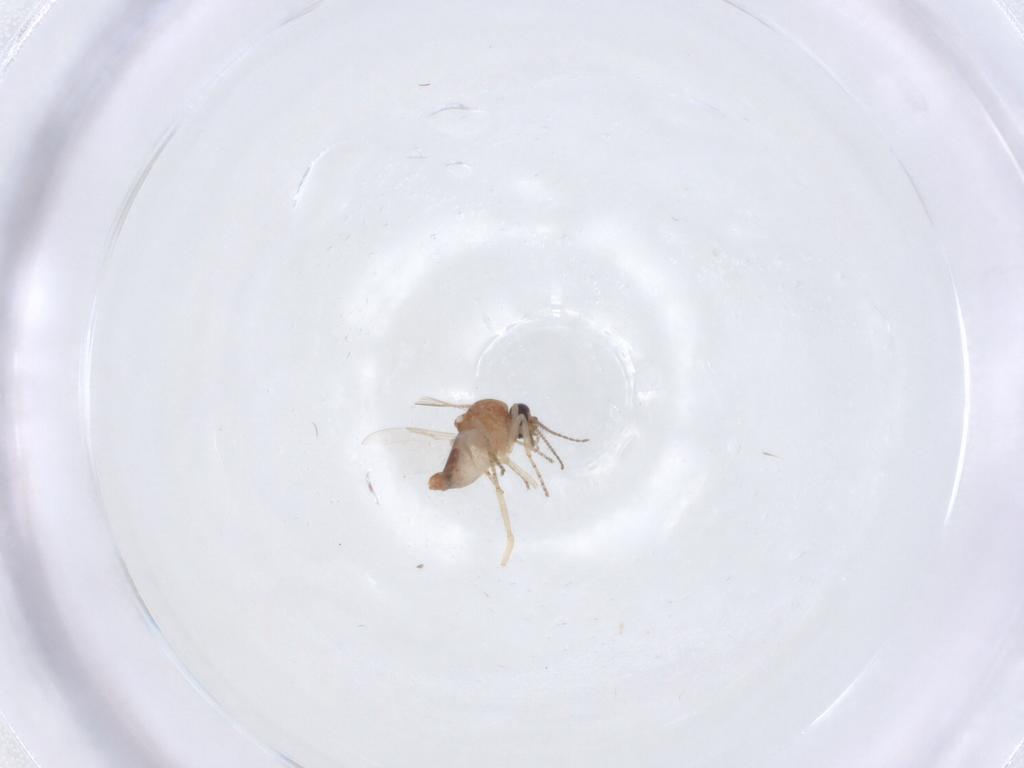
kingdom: Animalia
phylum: Arthropoda
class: Insecta
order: Diptera
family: Ceratopogonidae
